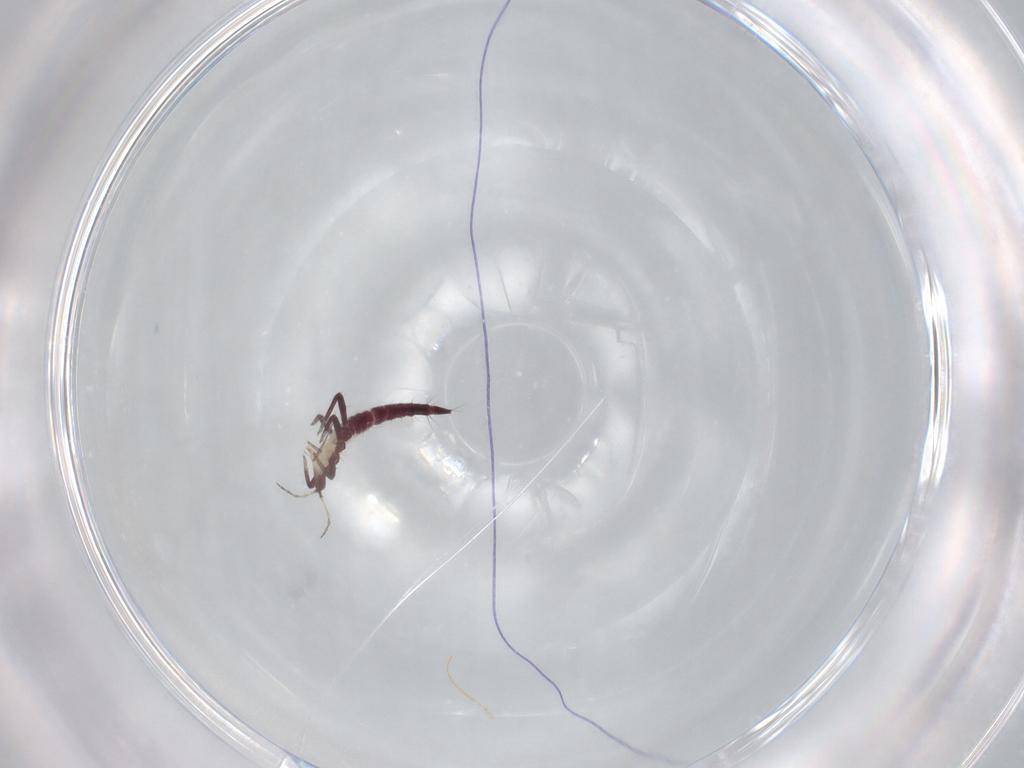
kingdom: Animalia
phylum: Arthropoda
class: Insecta
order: Thysanoptera
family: Phlaeothripidae
